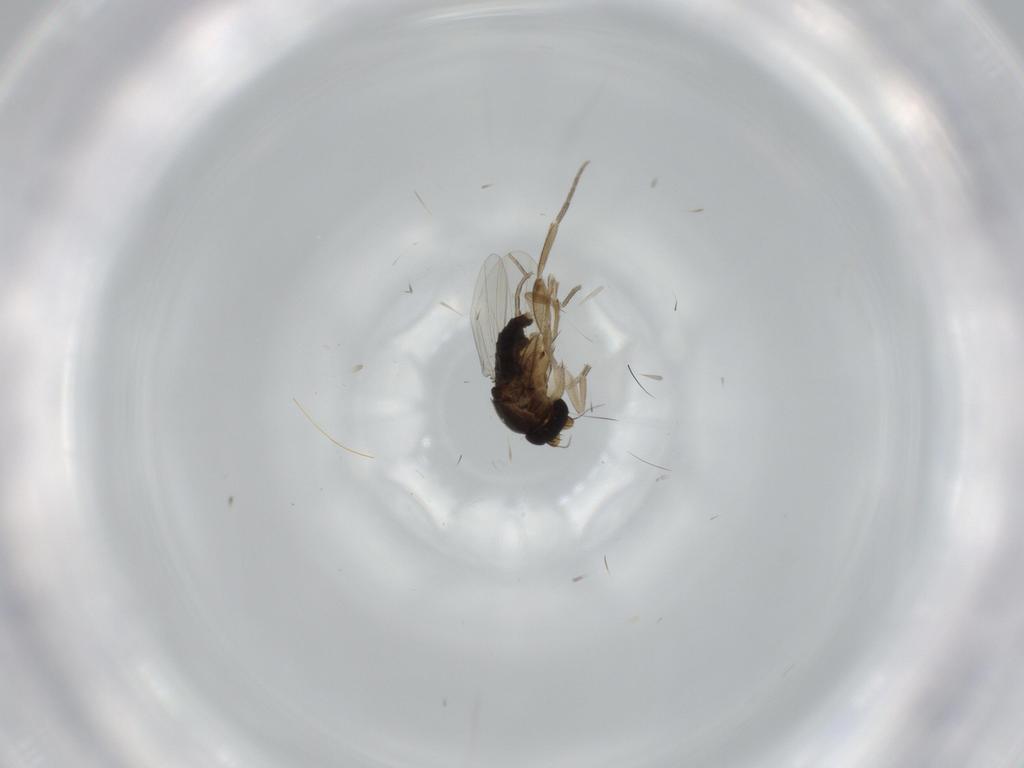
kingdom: Animalia
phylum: Arthropoda
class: Insecta
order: Diptera
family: Phoridae
